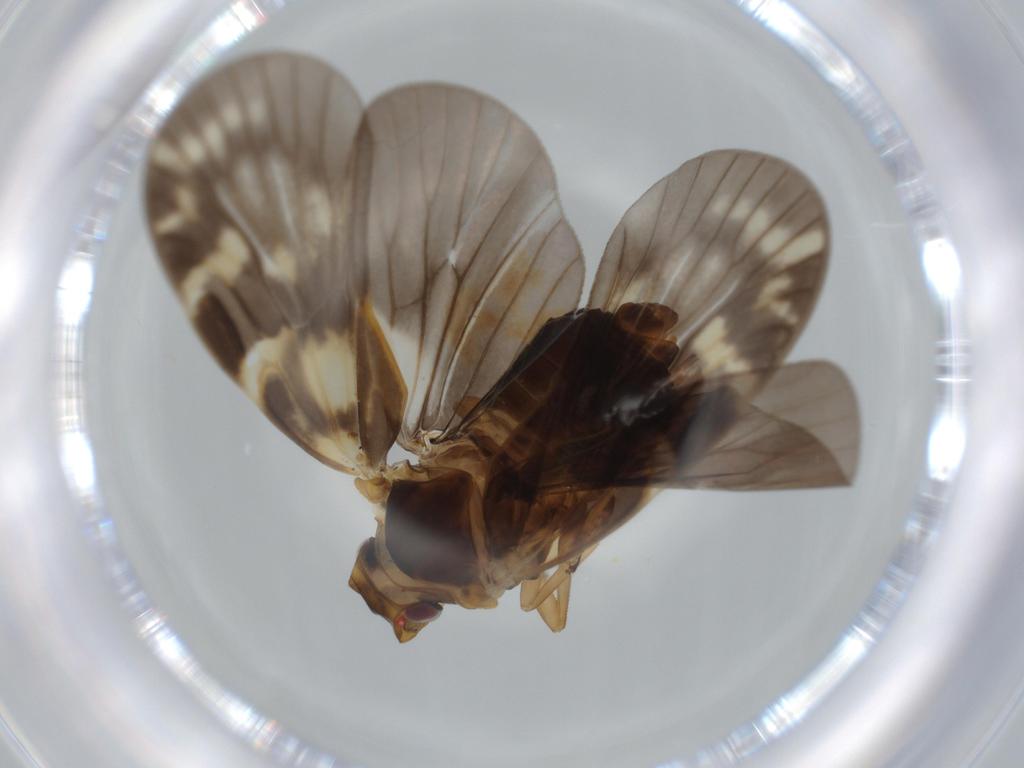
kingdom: Animalia
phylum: Arthropoda
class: Insecta
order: Hemiptera
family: Cixiidae
